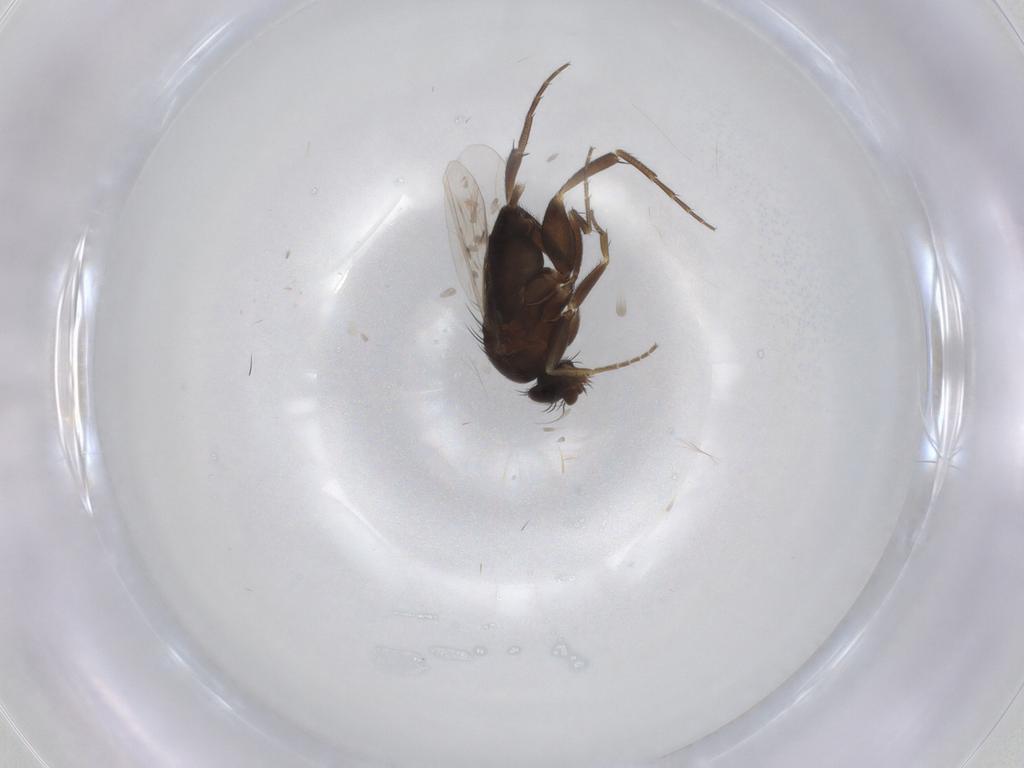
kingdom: Animalia
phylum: Arthropoda
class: Insecta
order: Diptera
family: Phoridae
